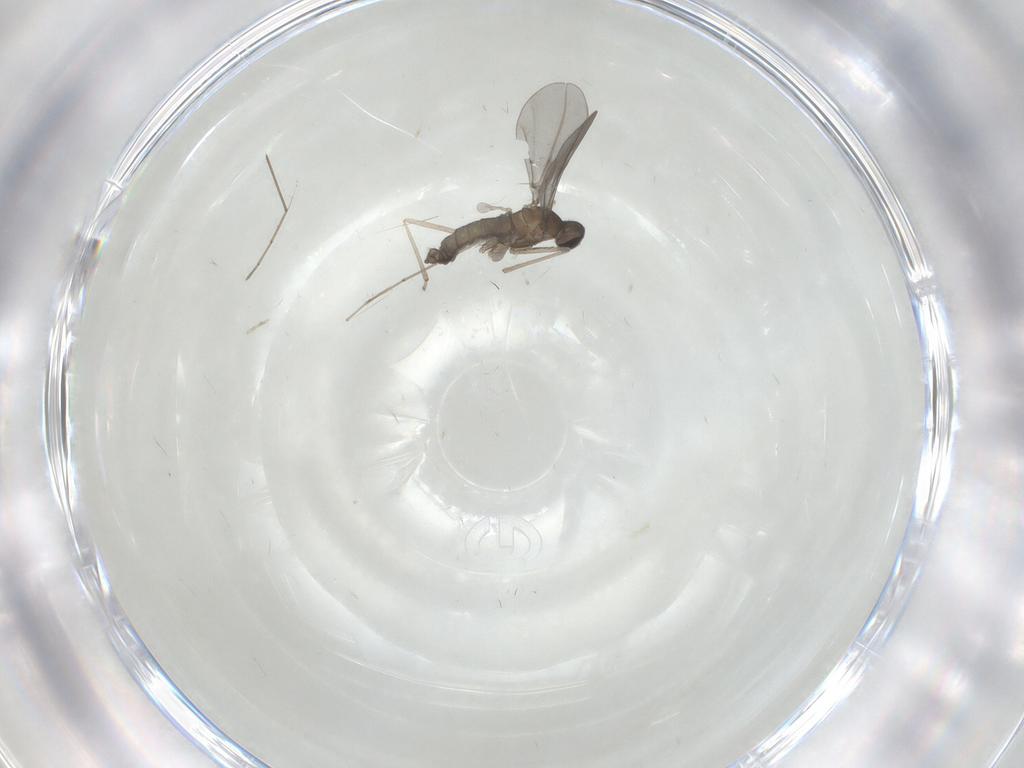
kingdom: Animalia
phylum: Arthropoda
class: Insecta
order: Diptera
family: Cecidomyiidae
